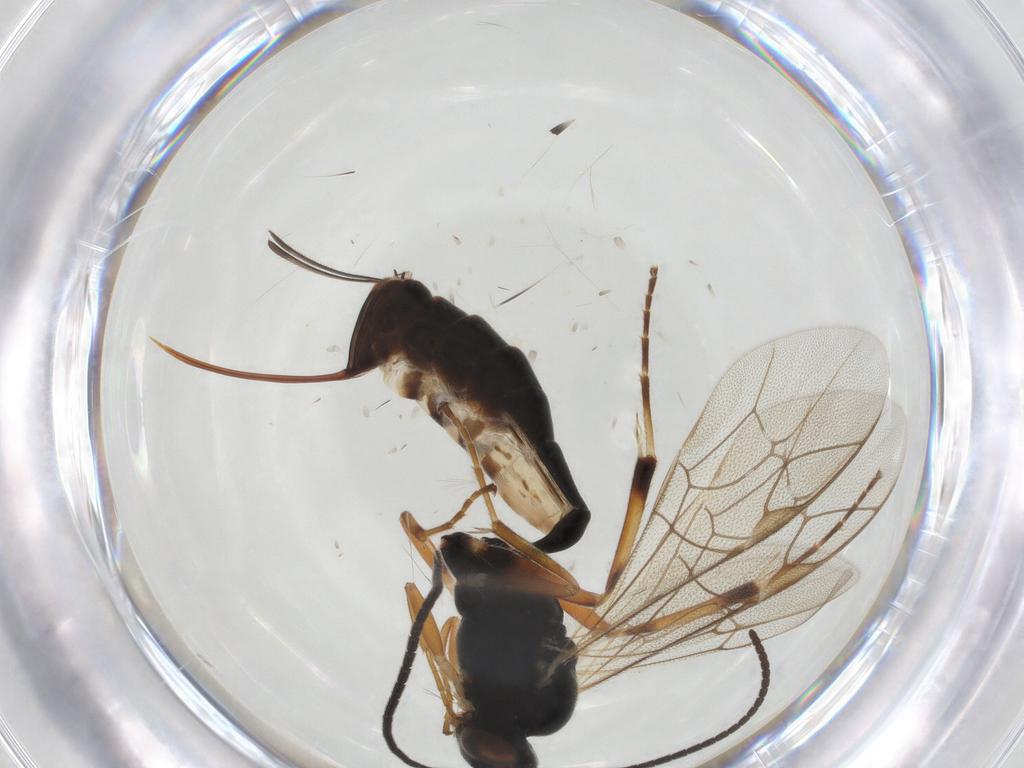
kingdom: Animalia
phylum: Arthropoda
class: Insecta
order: Hymenoptera
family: Ichneumonidae
